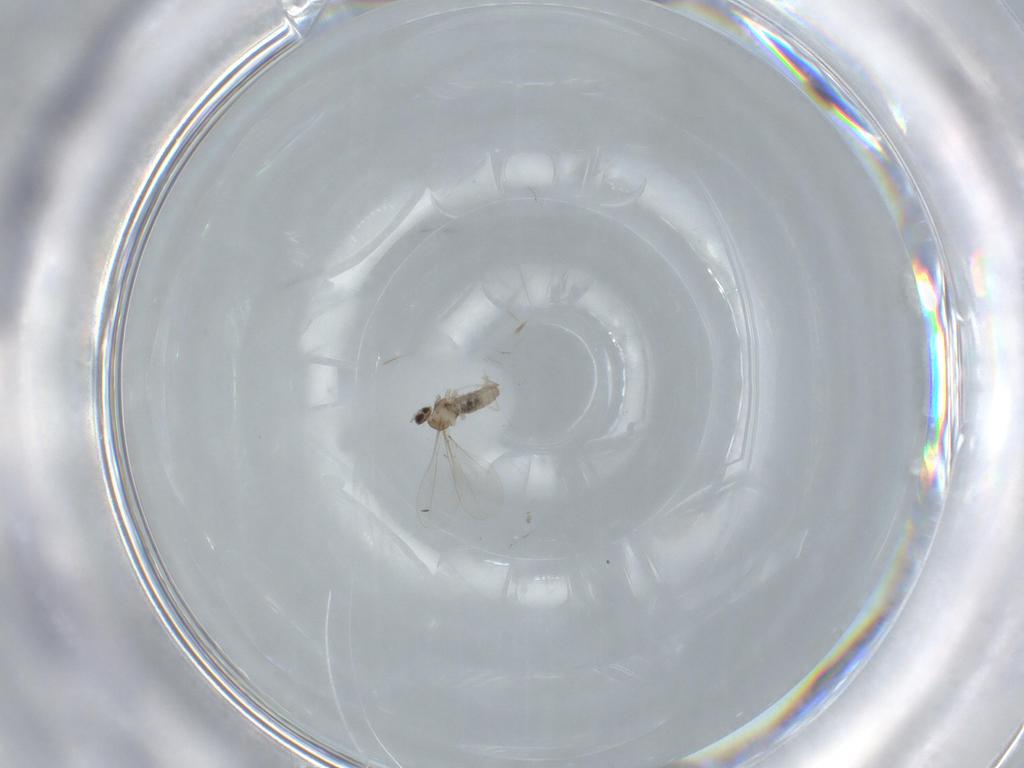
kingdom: Animalia
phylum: Arthropoda
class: Insecta
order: Diptera
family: Cecidomyiidae
